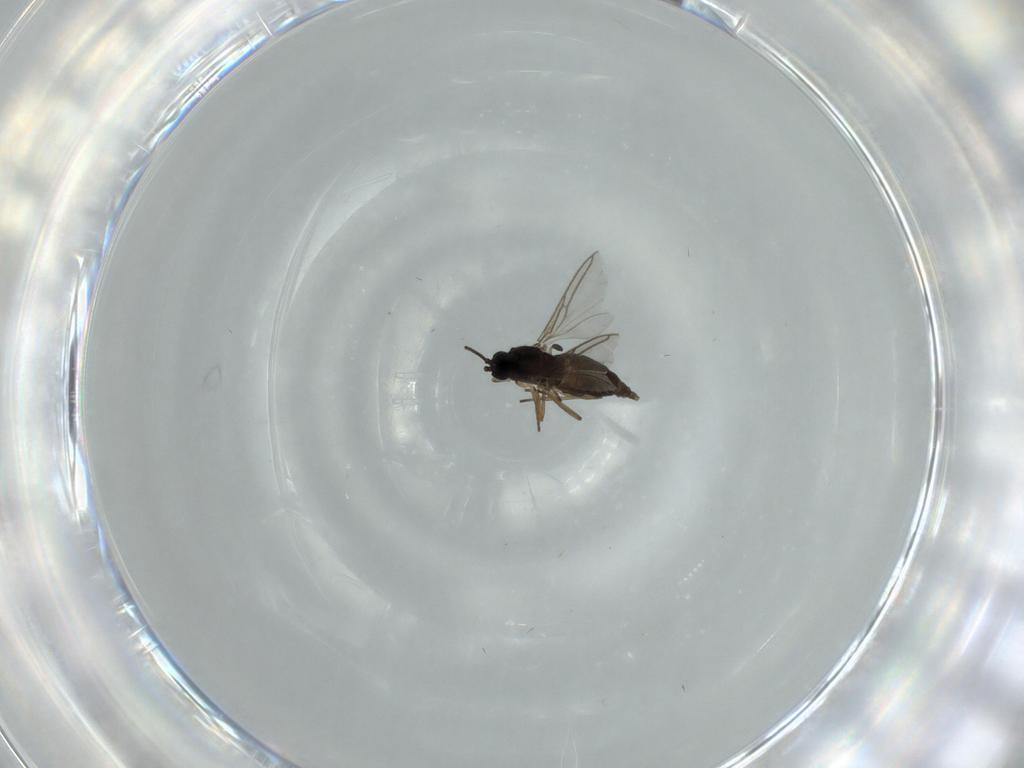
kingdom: Animalia
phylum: Arthropoda
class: Insecta
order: Diptera
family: Sciaridae
